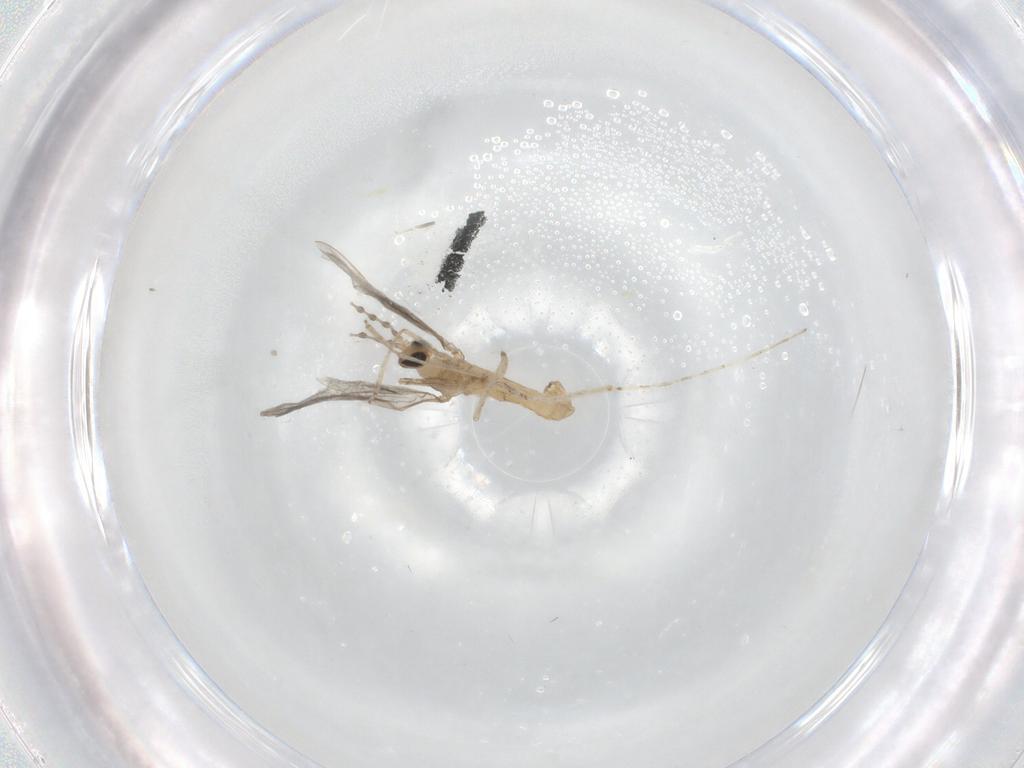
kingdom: Animalia
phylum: Arthropoda
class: Insecta
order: Diptera
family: Cecidomyiidae
